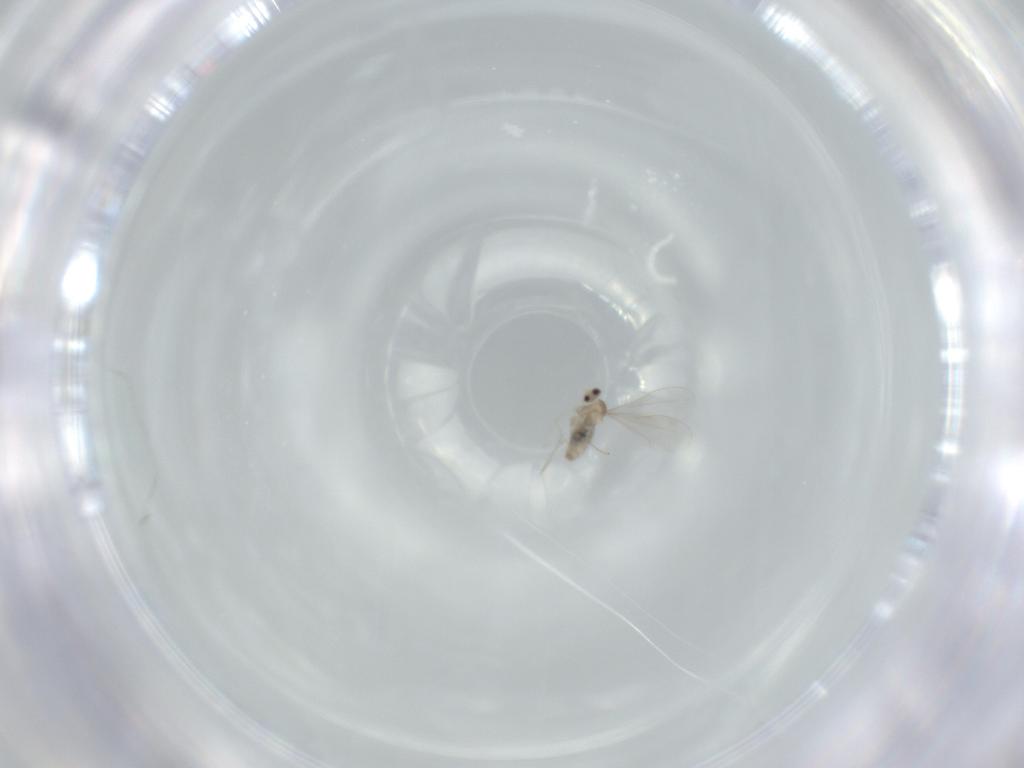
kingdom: Animalia
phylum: Arthropoda
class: Insecta
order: Diptera
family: Cecidomyiidae
